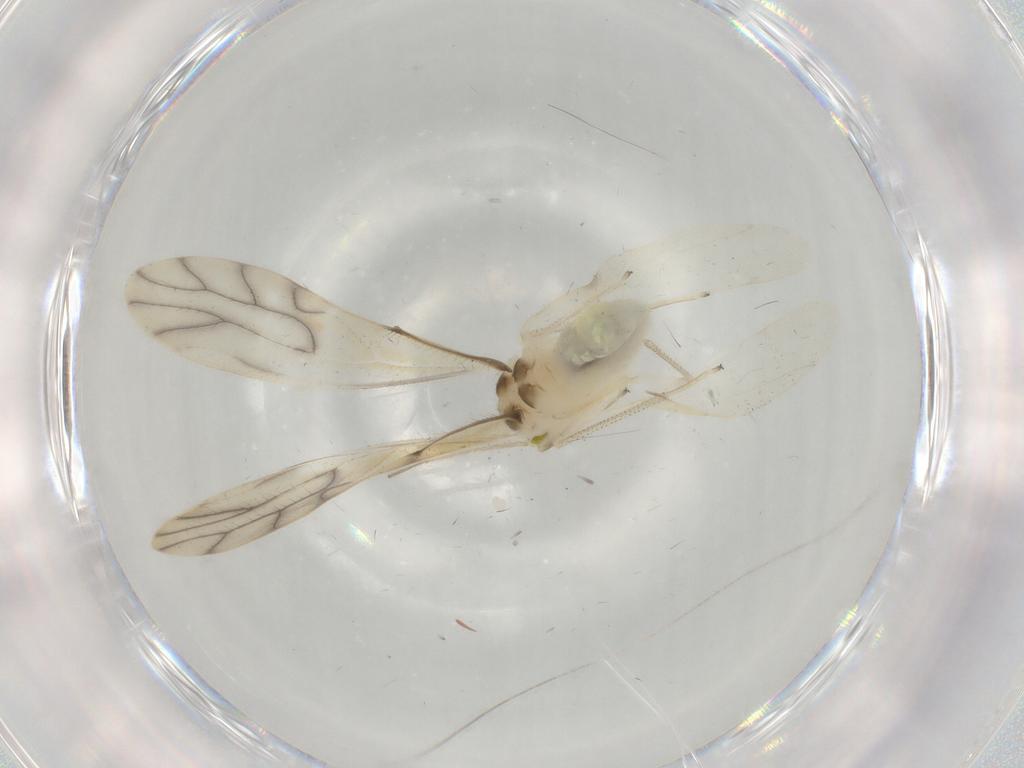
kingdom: Animalia
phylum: Arthropoda
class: Insecta
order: Psocodea
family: Caeciliusidae
